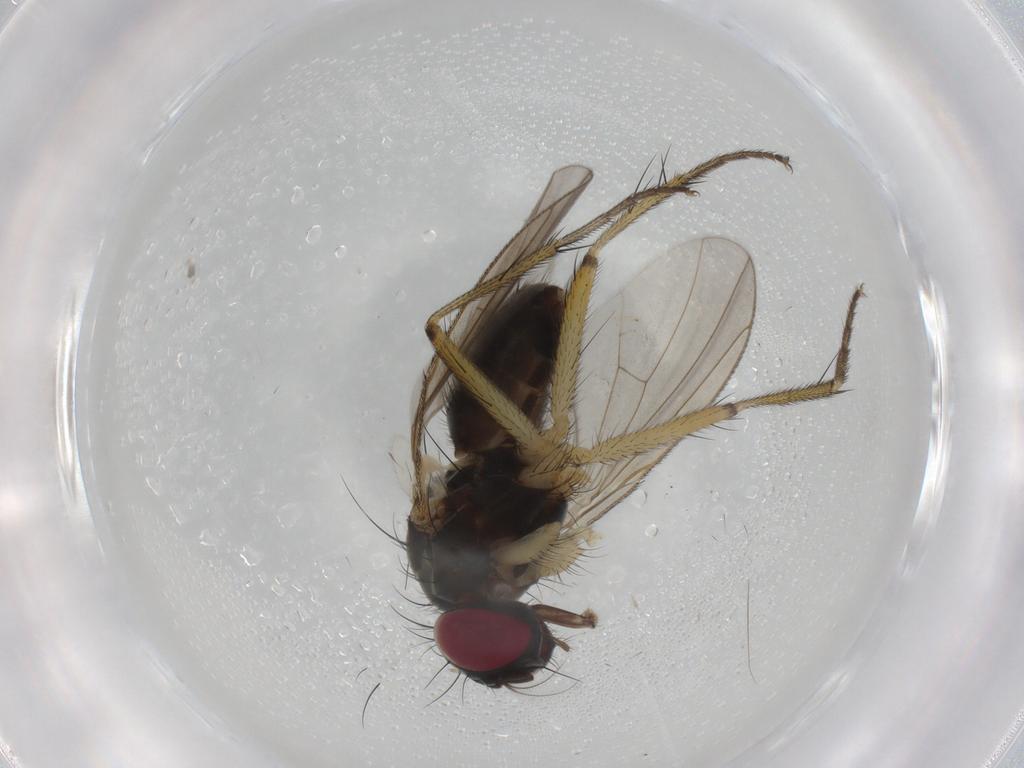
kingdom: Animalia
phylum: Arthropoda
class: Insecta
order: Diptera
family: Muscidae
